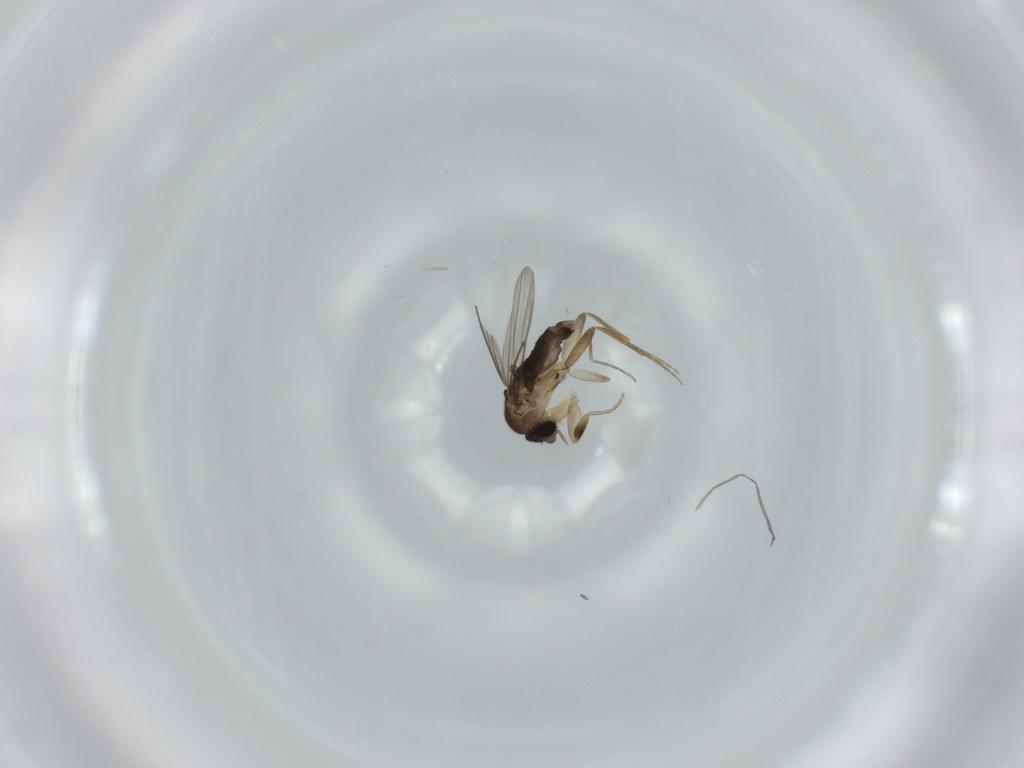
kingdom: Animalia
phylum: Arthropoda
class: Insecta
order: Diptera
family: Phoridae
